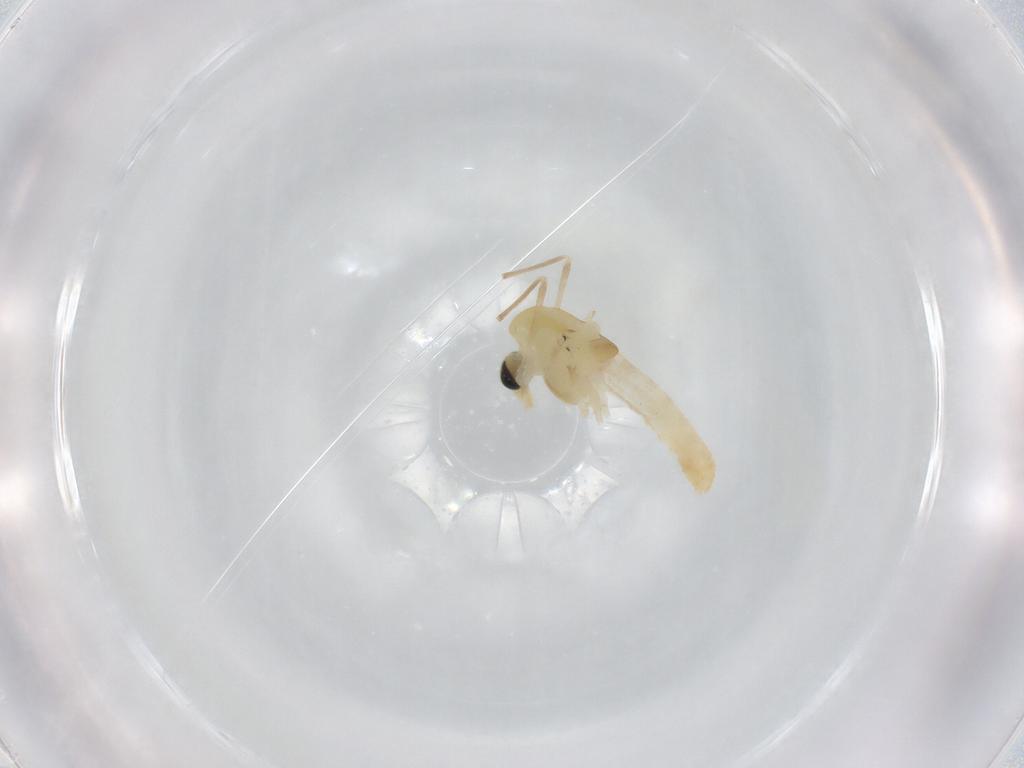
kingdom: Animalia
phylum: Arthropoda
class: Insecta
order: Diptera
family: Chironomidae
